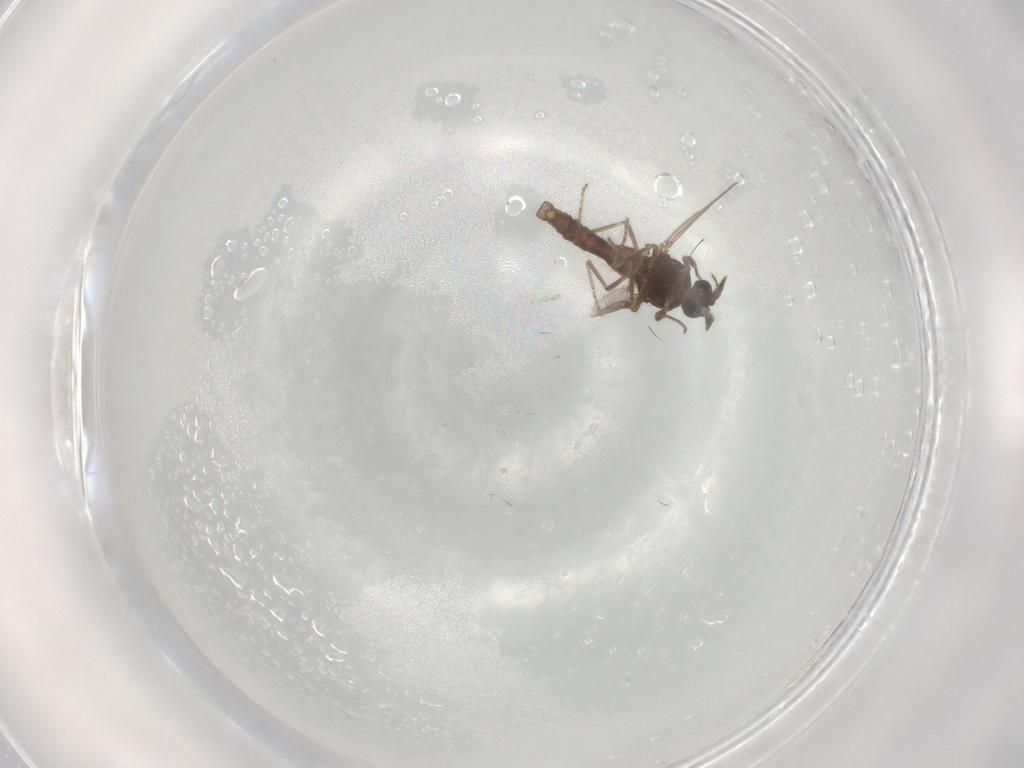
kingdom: Animalia
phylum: Arthropoda
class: Insecta
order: Diptera
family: Ceratopogonidae
